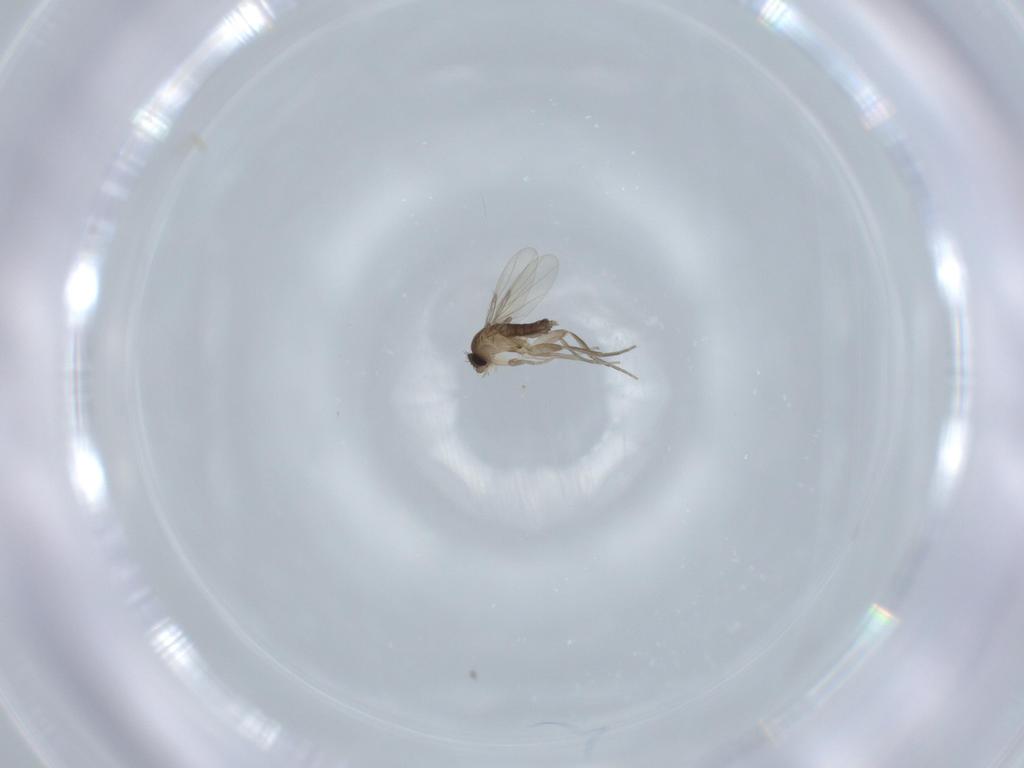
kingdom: Animalia
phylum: Arthropoda
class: Insecta
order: Diptera
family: Phoridae
